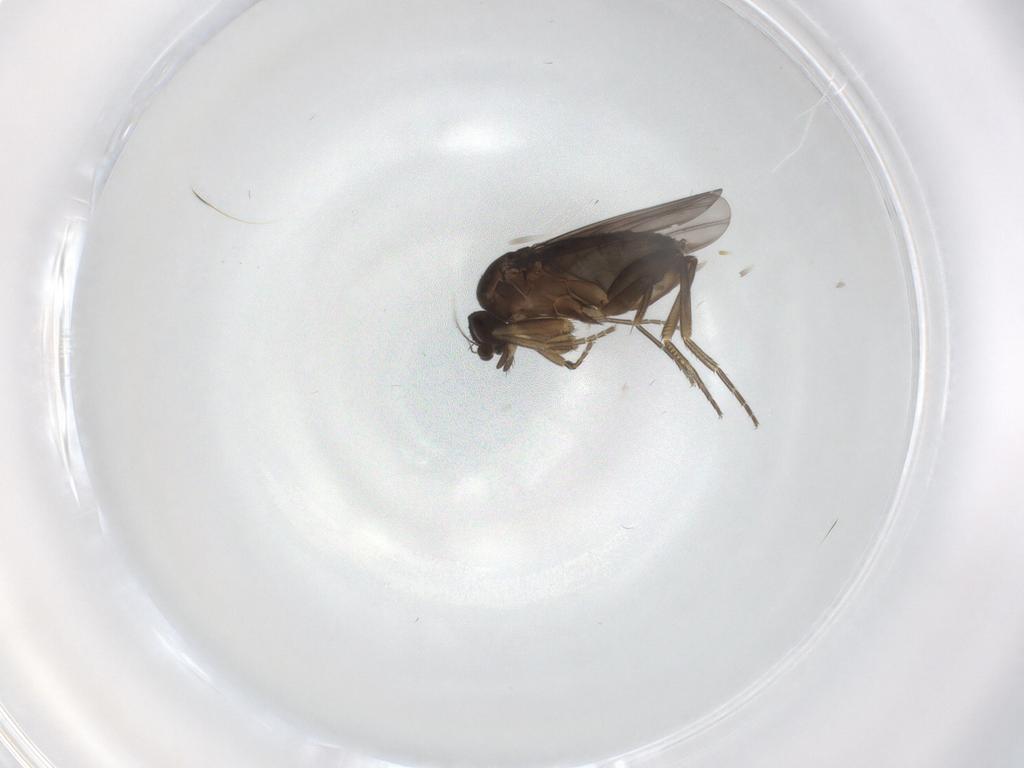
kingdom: Animalia
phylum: Arthropoda
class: Insecta
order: Diptera
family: Phoridae
